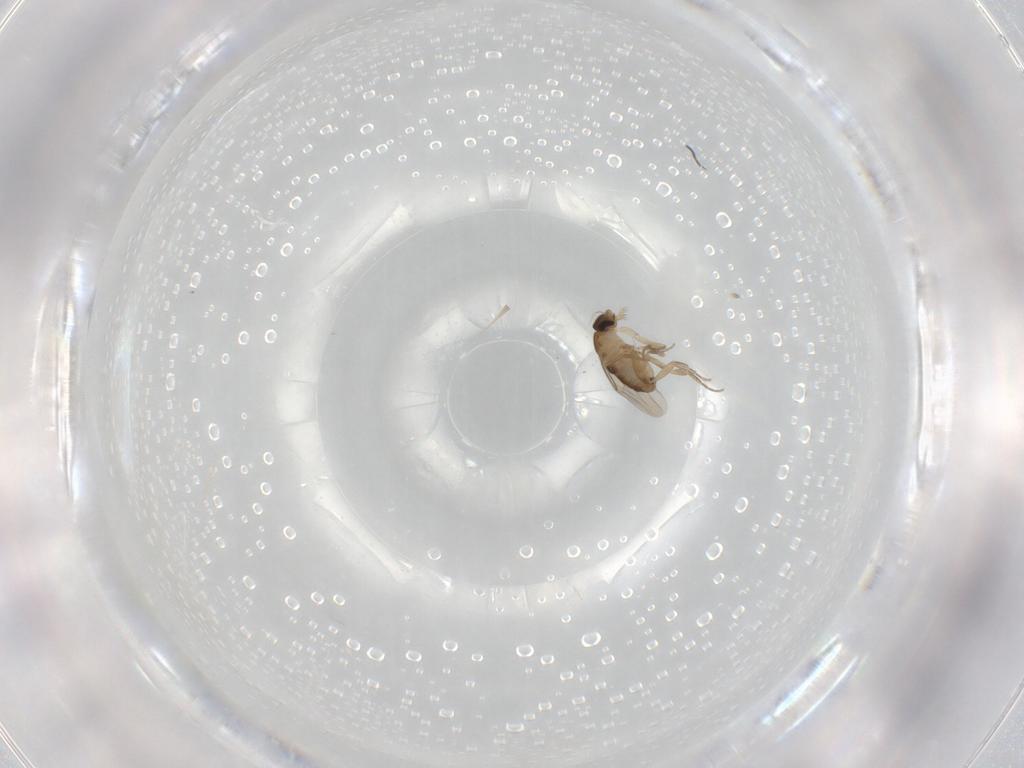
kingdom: Animalia
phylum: Arthropoda
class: Insecta
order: Diptera
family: Phoridae
